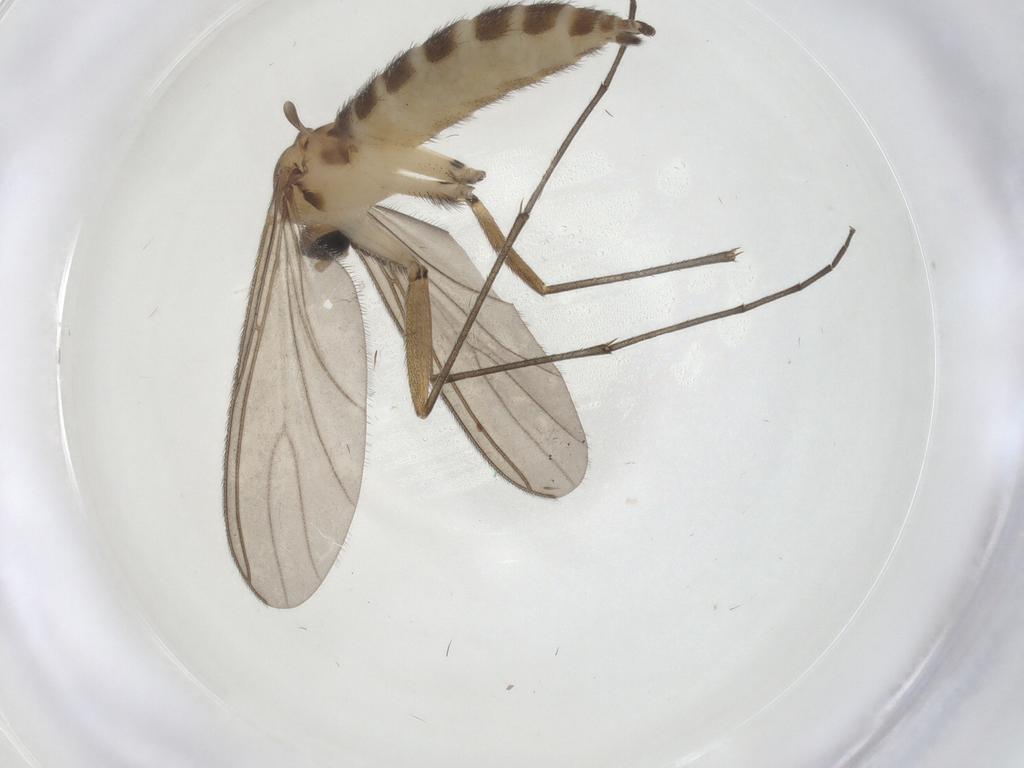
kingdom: Animalia
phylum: Arthropoda
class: Insecta
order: Diptera
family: Sciaridae
